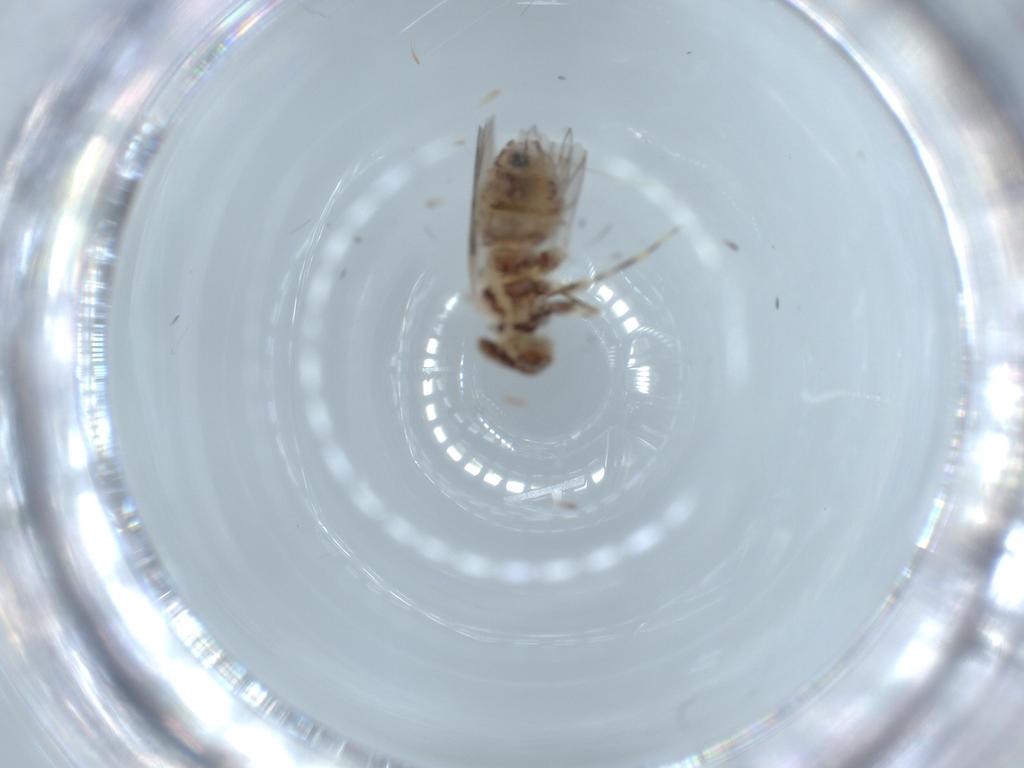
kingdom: Animalia
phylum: Arthropoda
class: Insecta
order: Psocodea
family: Lepidopsocidae
